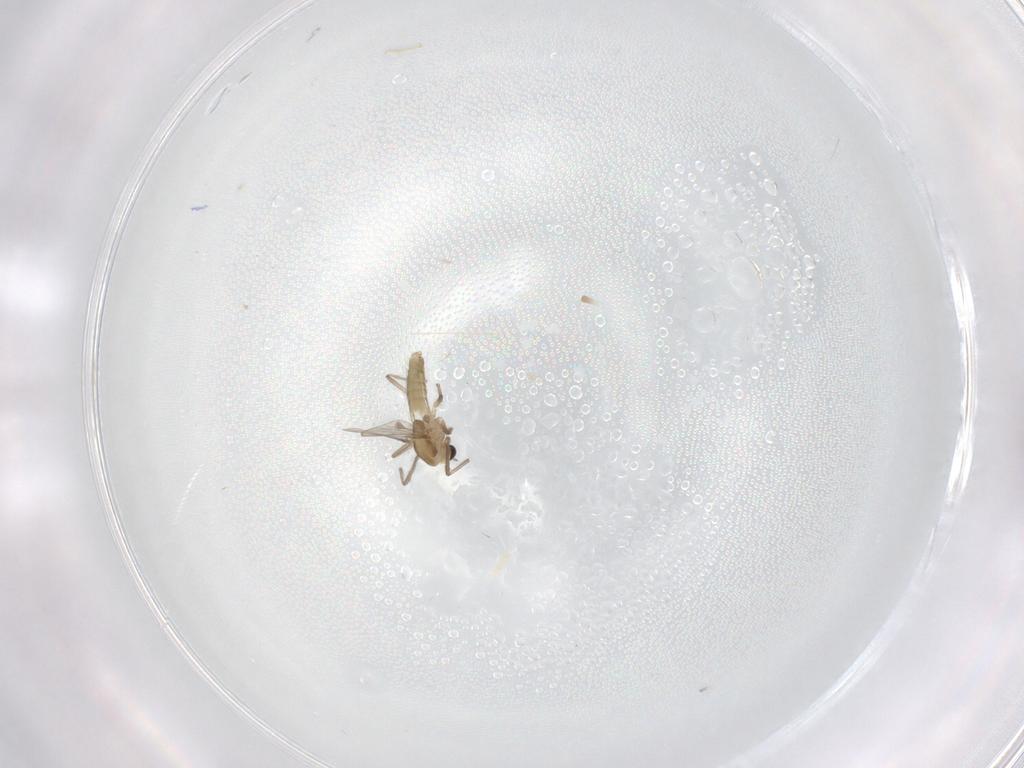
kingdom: Animalia
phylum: Arthropoda
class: Insecta
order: Diptera
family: Chironomidae
